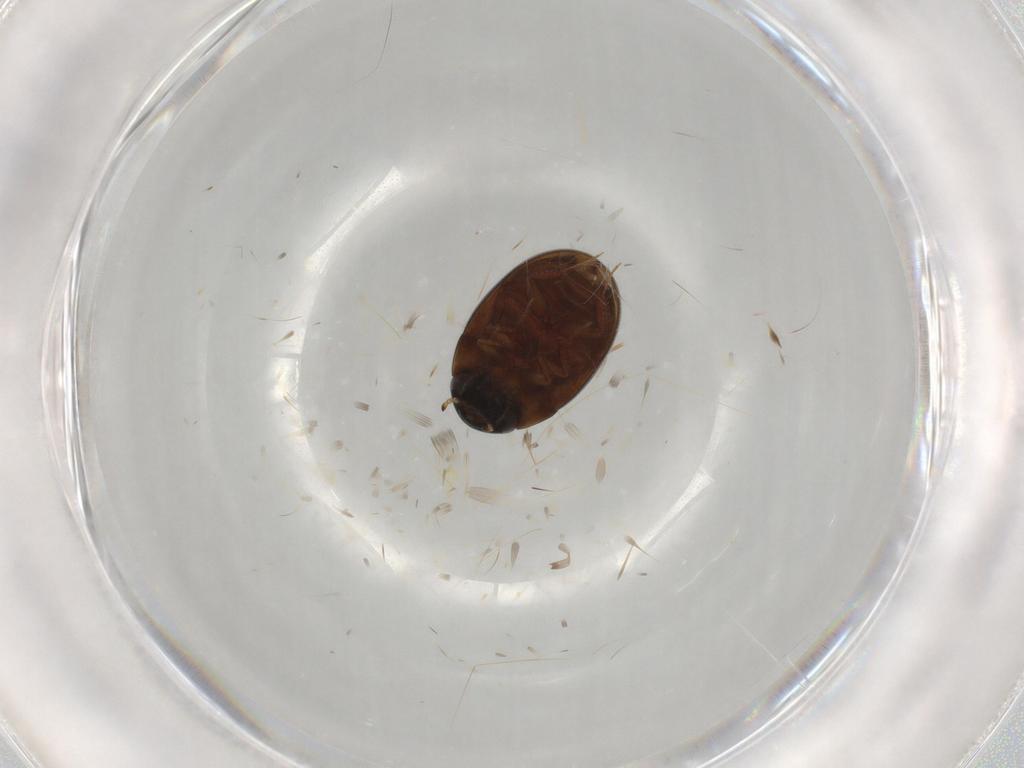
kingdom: Animalia
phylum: Arthropoda
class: Insecta
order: Coleoptera
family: Hydrophilidae
